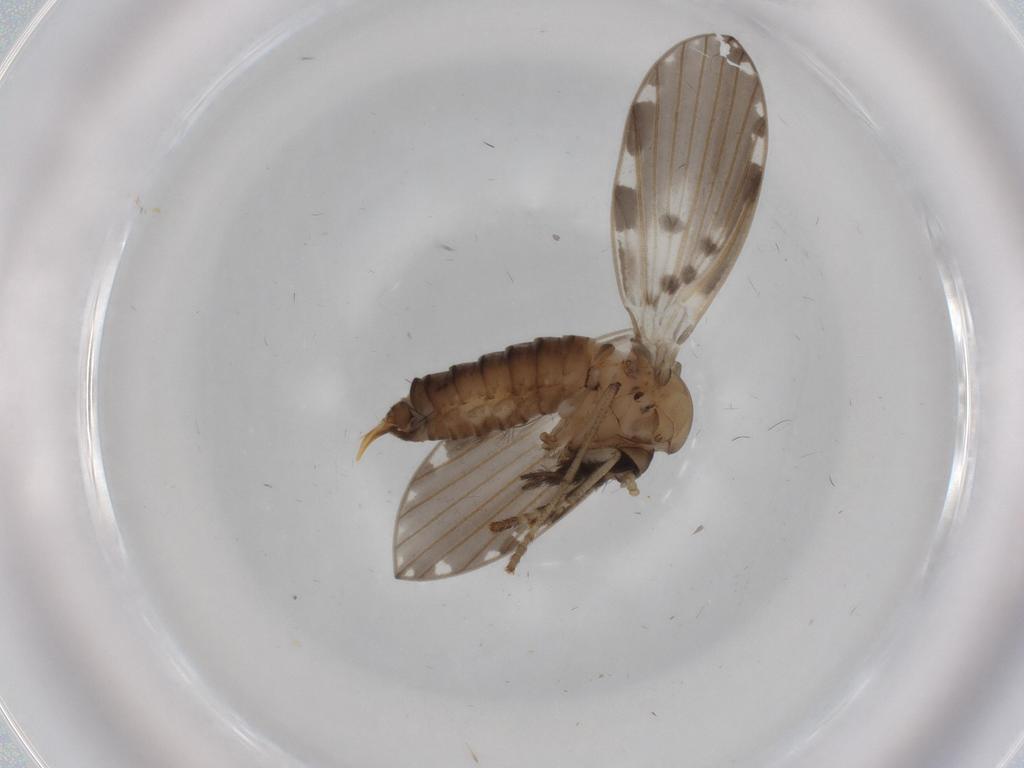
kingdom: Animalia
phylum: Arthropoda
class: Insecta
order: Diptera
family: Psychodidae
